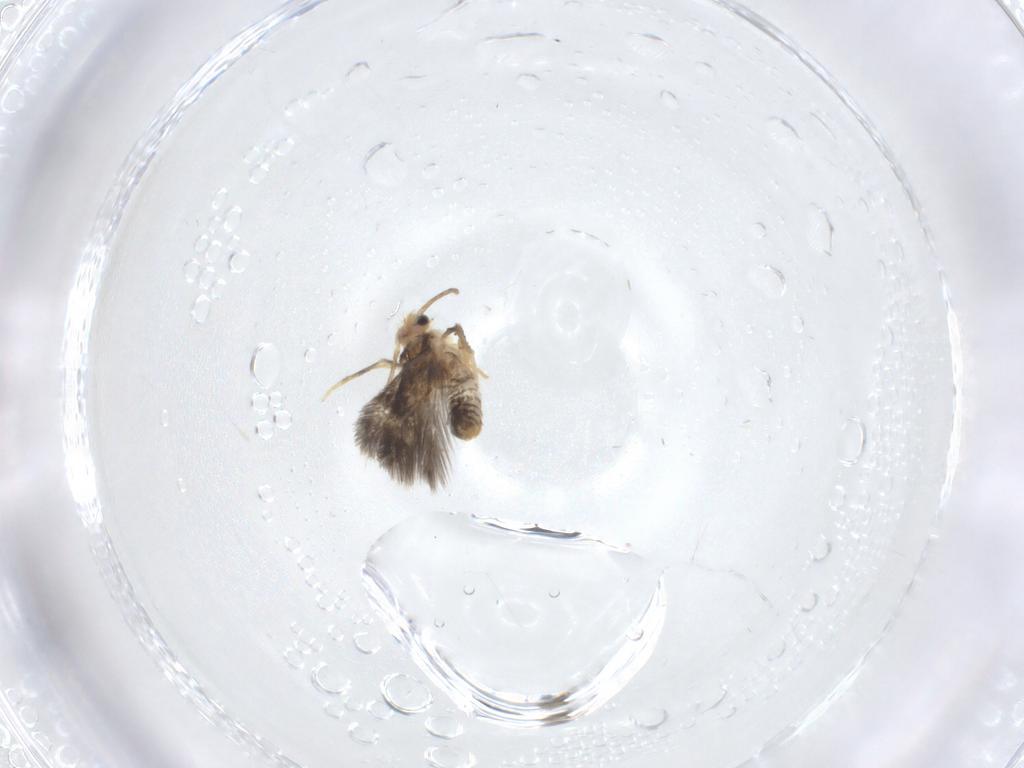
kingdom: Animalia
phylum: Arthropoda
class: Insecta
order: Lepidoptera
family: Nepticulidae
